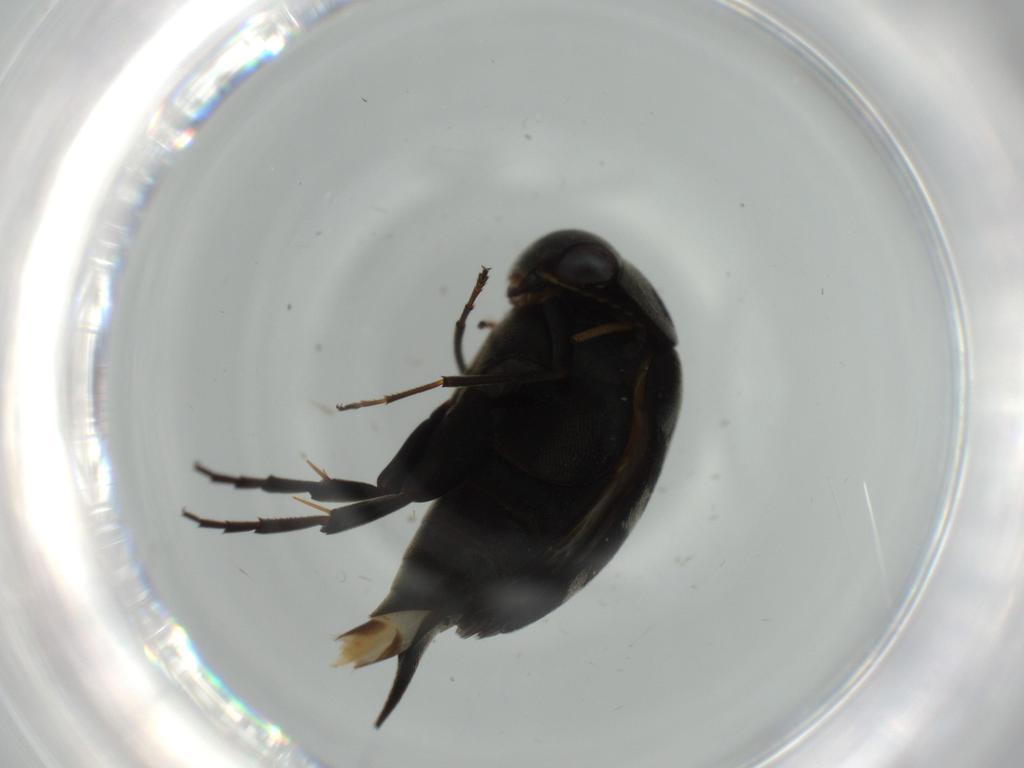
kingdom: Animalia
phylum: Arthropoda
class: Insecta
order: Coleoptera
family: Mordellidae
